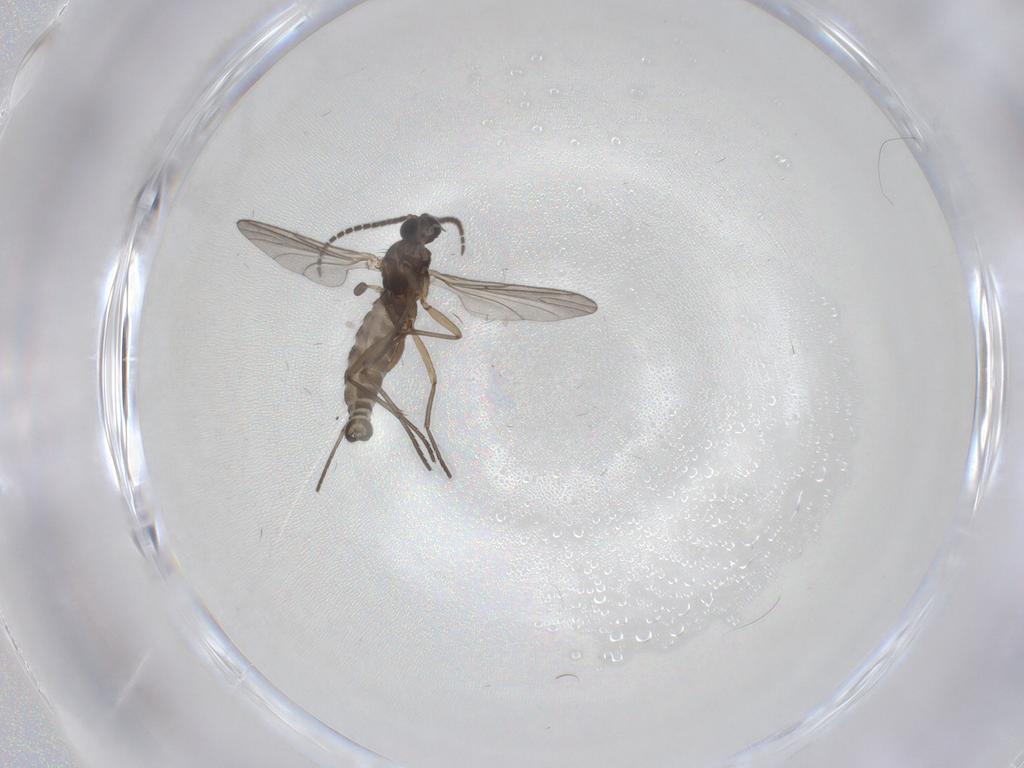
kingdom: Animalia
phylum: Arthropoda
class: Insecta
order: Diptera
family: Sciaridae
